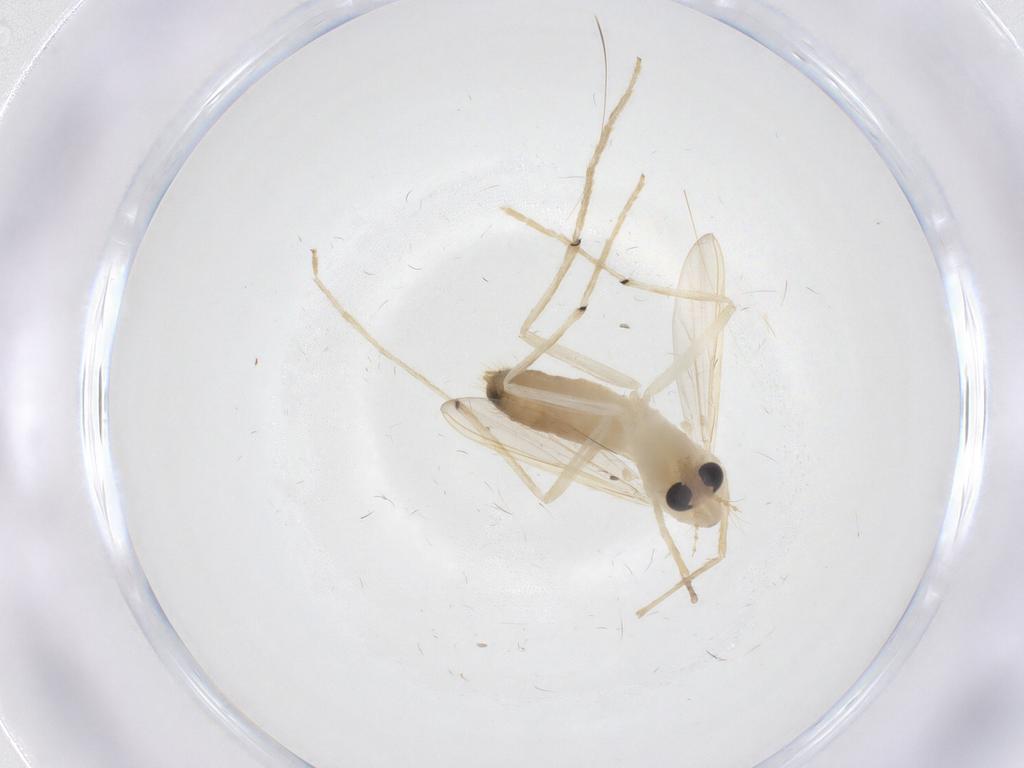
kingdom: Animalia
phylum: Arthropoda
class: Insecta
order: Diptera
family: Chironomidae
